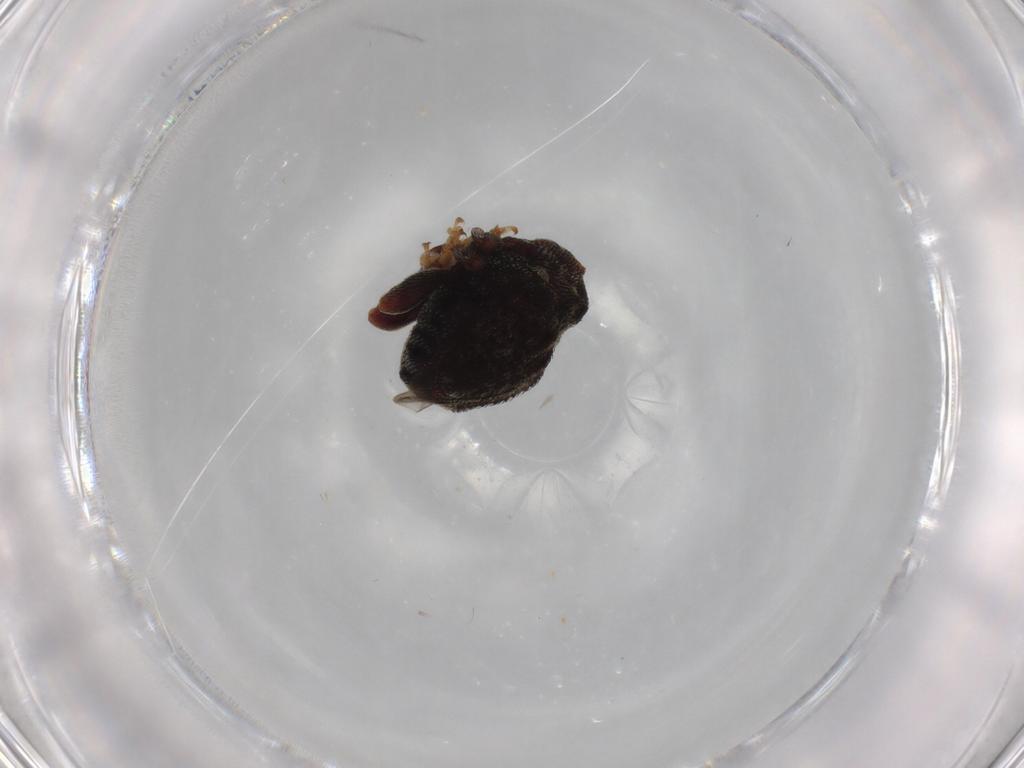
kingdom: Animalia
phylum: Arthropoda
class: Insecta
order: Coleoptera
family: Curculionidae
